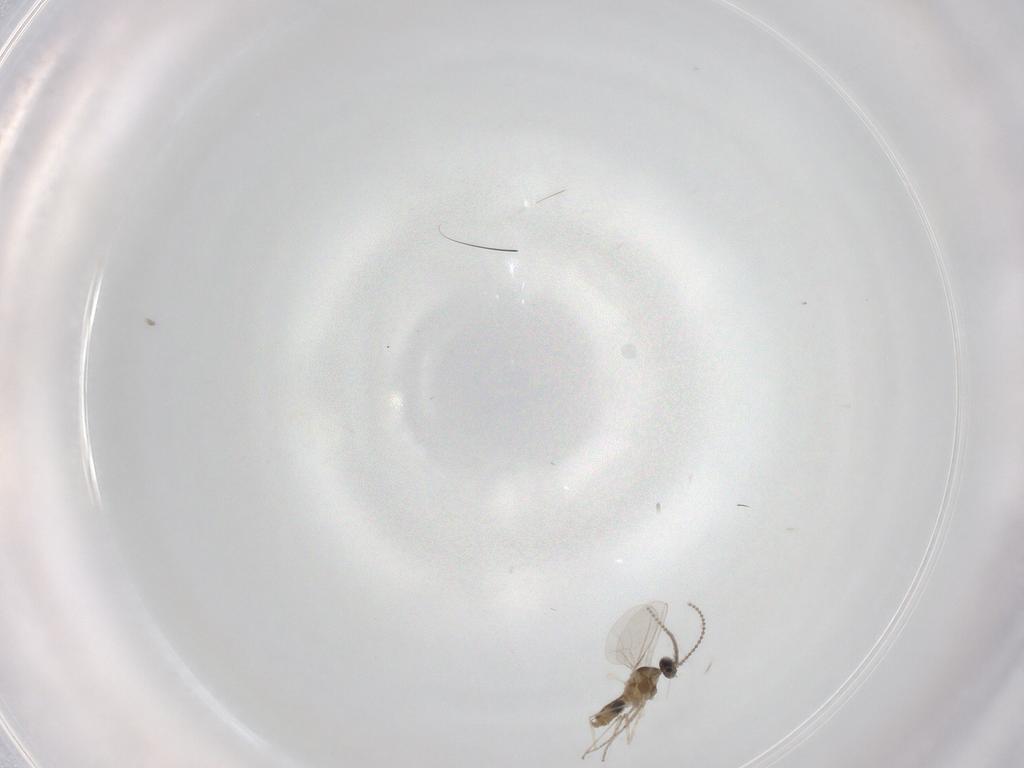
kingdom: Animalia
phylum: Arthropoda
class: Insecta
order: Diptera
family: Cecidomyiidae
